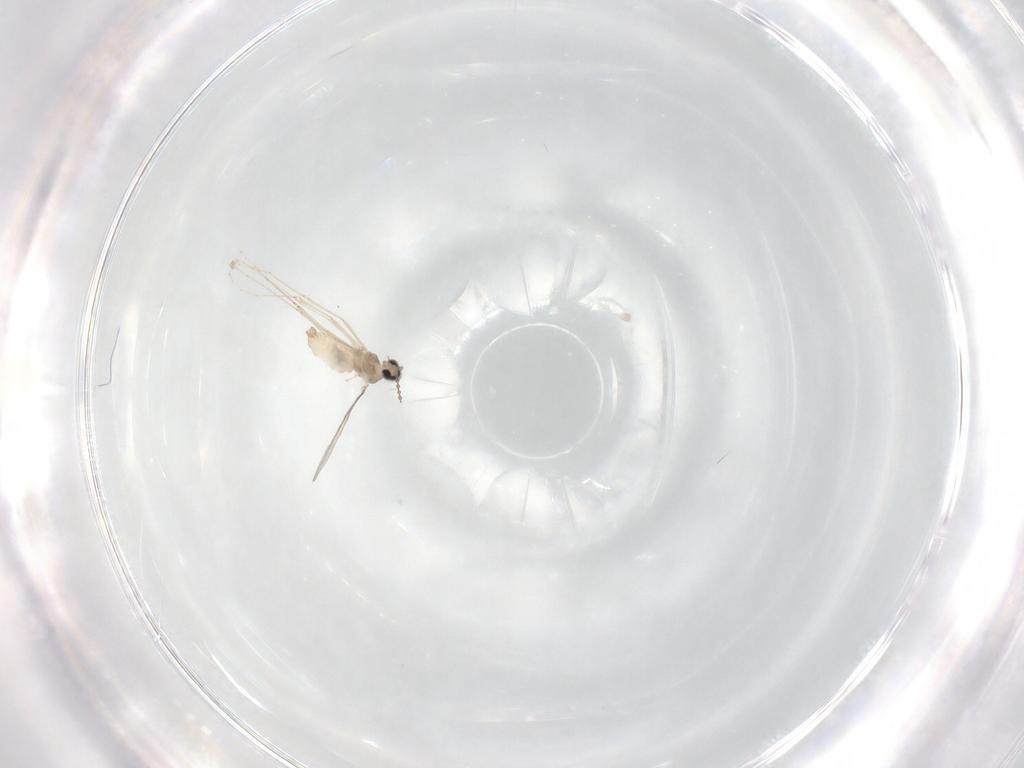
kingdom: Animalia
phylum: Arthropoda
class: Insecta
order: Diptera
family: Cecidomyiidae
